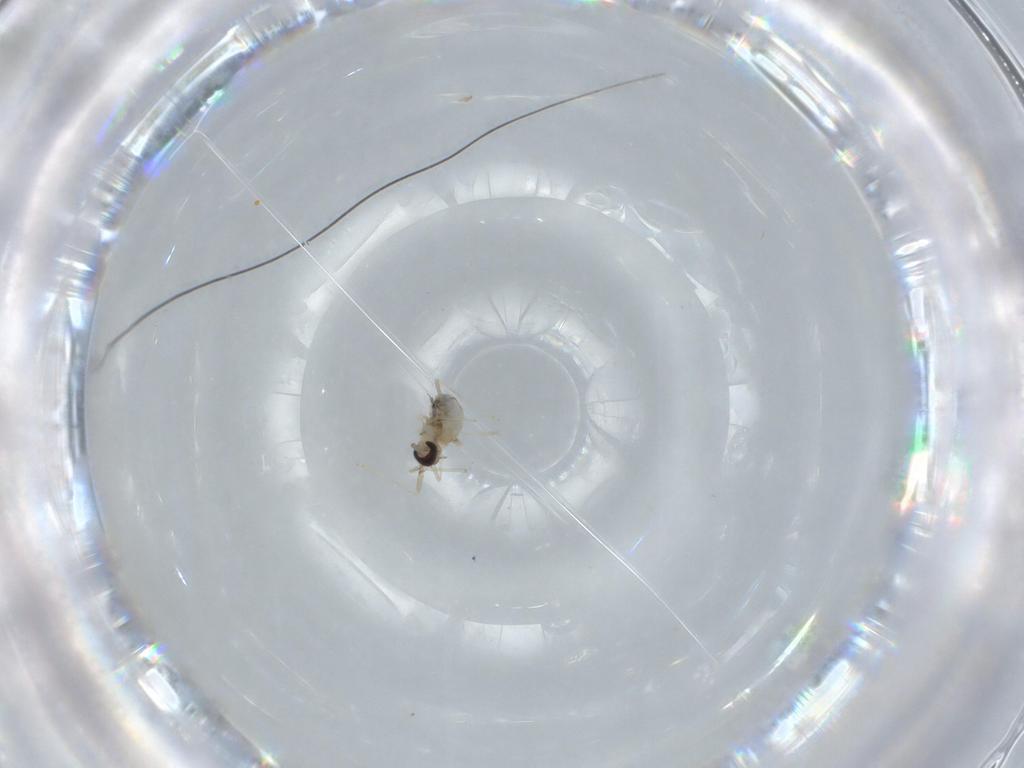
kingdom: Animalia
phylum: Arthropoda
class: Insecta
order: Diptera
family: Cecidomyiidae
